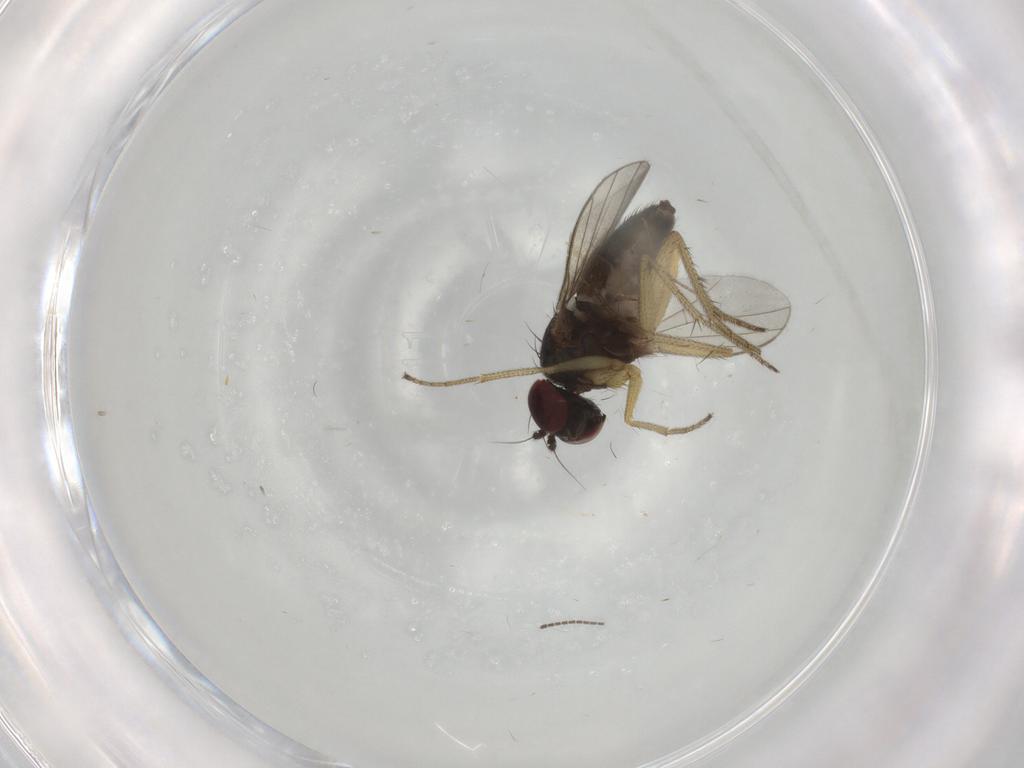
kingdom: Animalia
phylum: Arthropoda
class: Insecta
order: Diptera
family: Dolichopodidae
